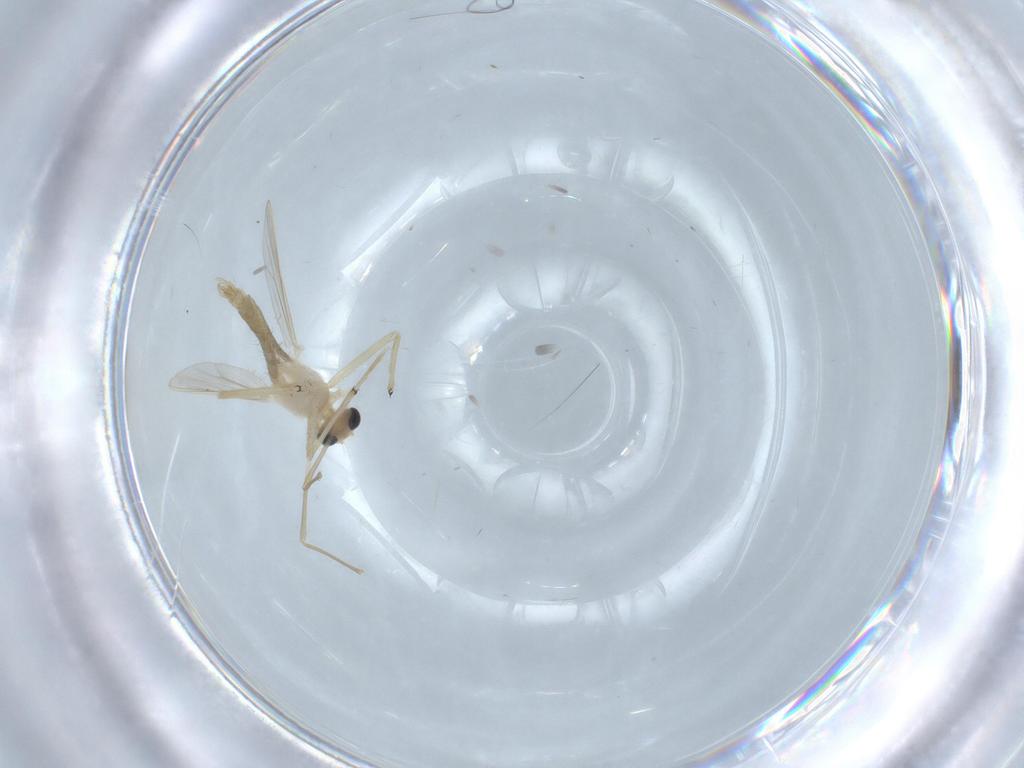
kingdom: Animalia
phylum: Arthropoda
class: Insecta
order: Diptera
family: Chironomidae
